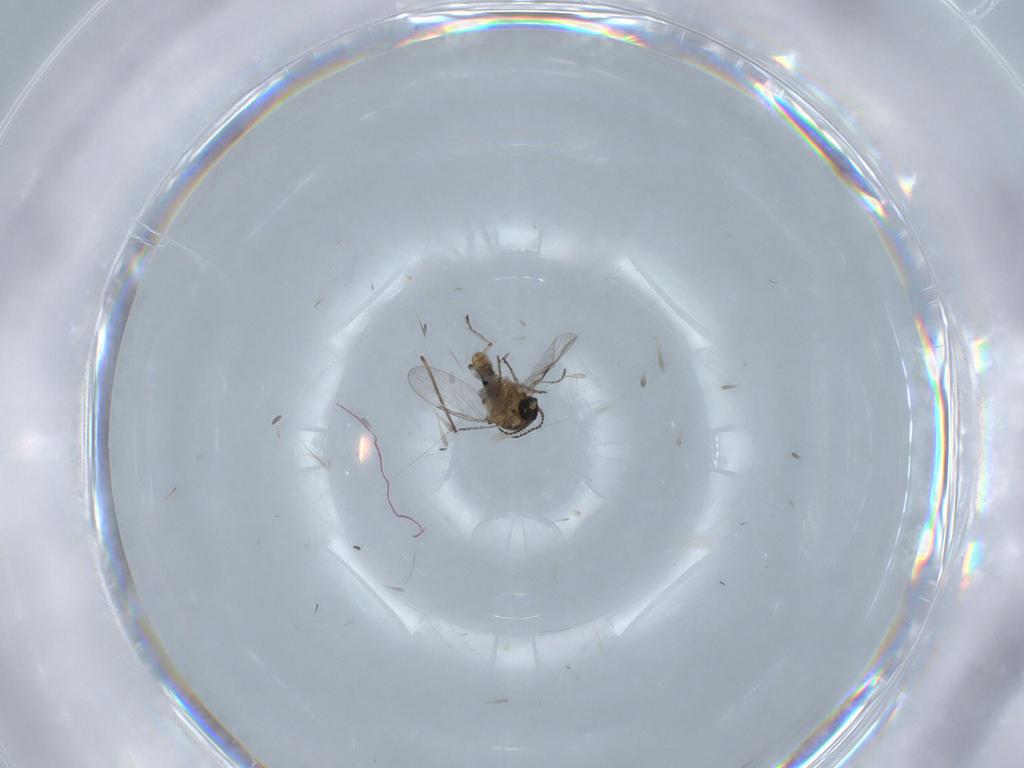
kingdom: Animalia
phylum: Arthropoda
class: Insecta
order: Diptera
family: Psychodidae
